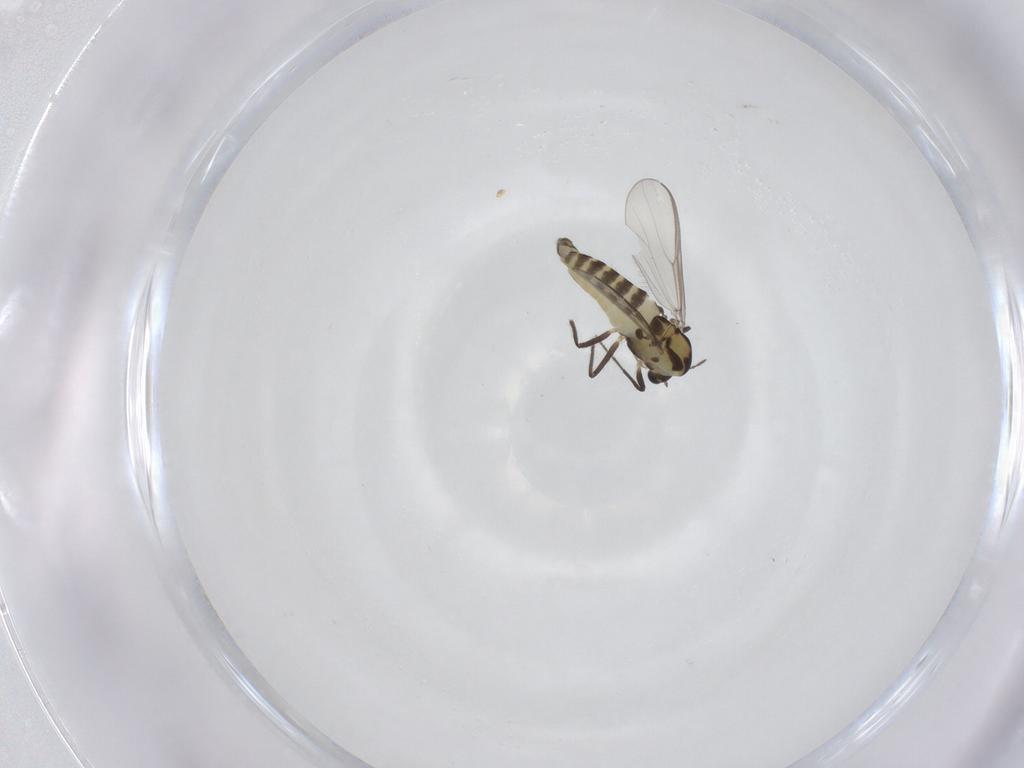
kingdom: Animalia
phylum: Arthropoda
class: Insecta
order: Diptera
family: Chironomidae
